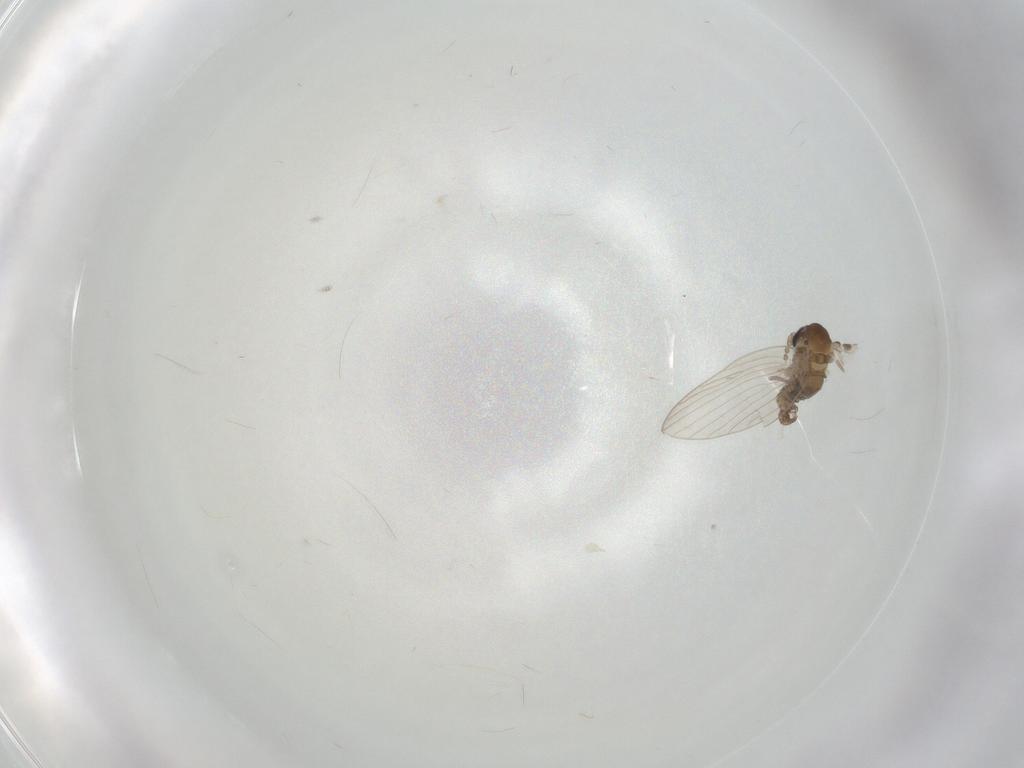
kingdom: Animalia
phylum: Arthropoda
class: Insecta
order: Diptera
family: Psychodidae
